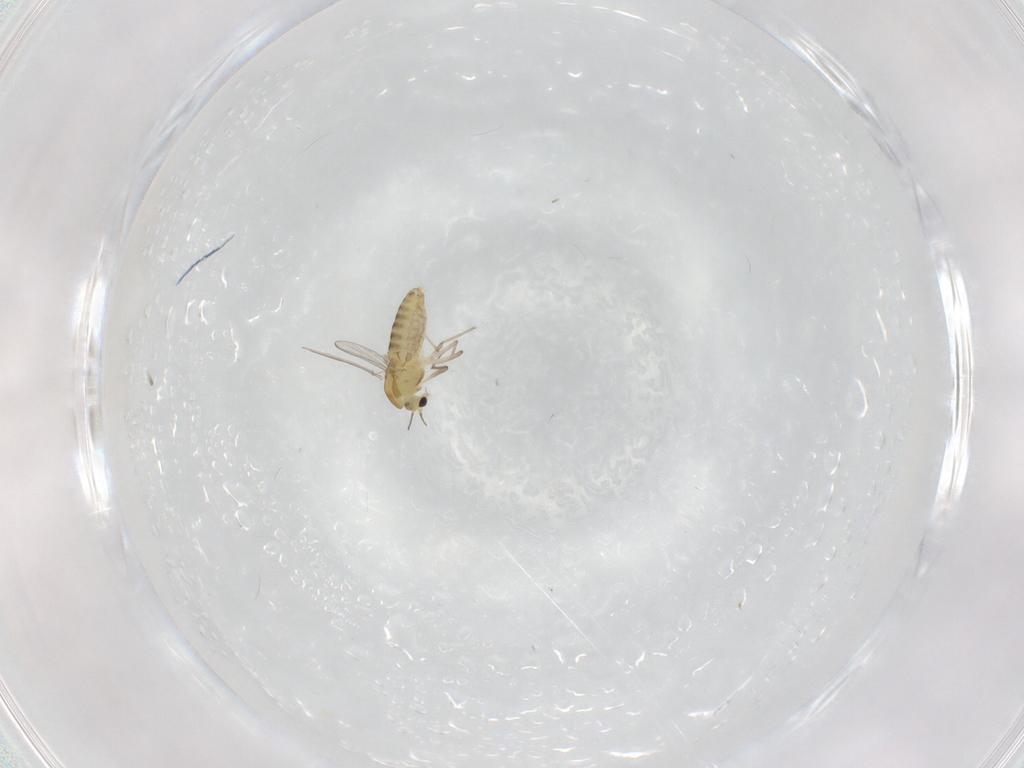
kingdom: Animalia
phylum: Arthropoda
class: Insecta
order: Diptera
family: Chironomidae
